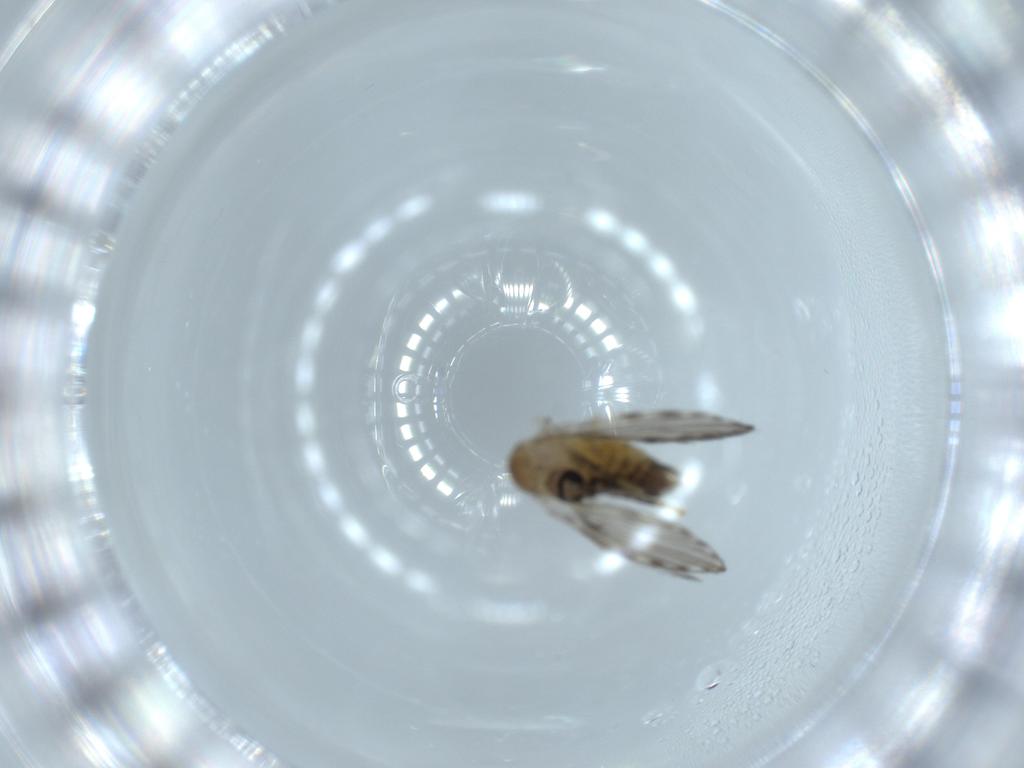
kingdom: Animalia
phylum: Arthropoda
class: Insecta
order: Diptera
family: Psychodidae
